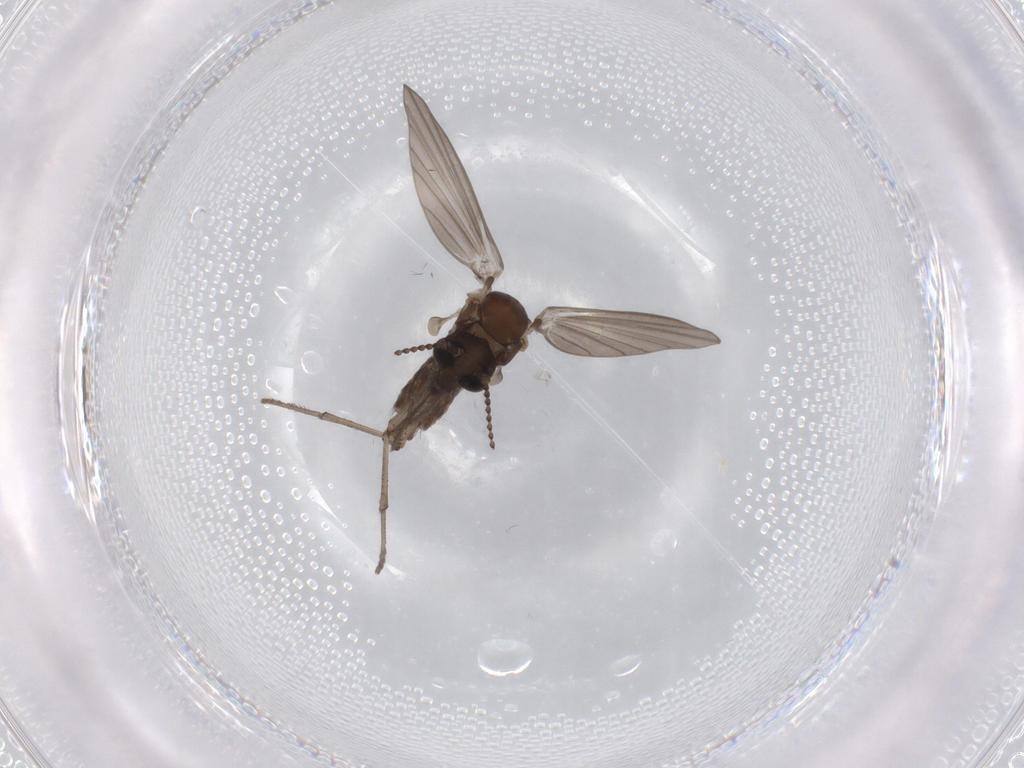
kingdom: Animalia
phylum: Arthropoda
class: Insecta
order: Diptera
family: Psychodidae
